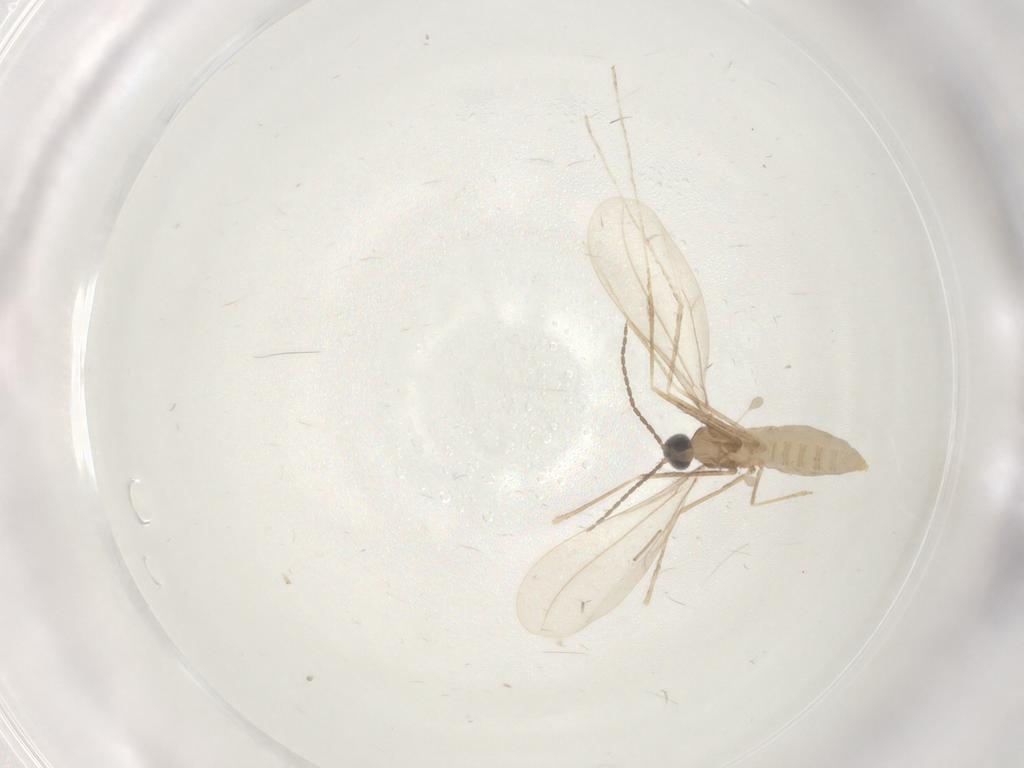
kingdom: Animalia
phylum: Arthropoda
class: Insecta
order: Diptera
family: Cecidomyiidae
